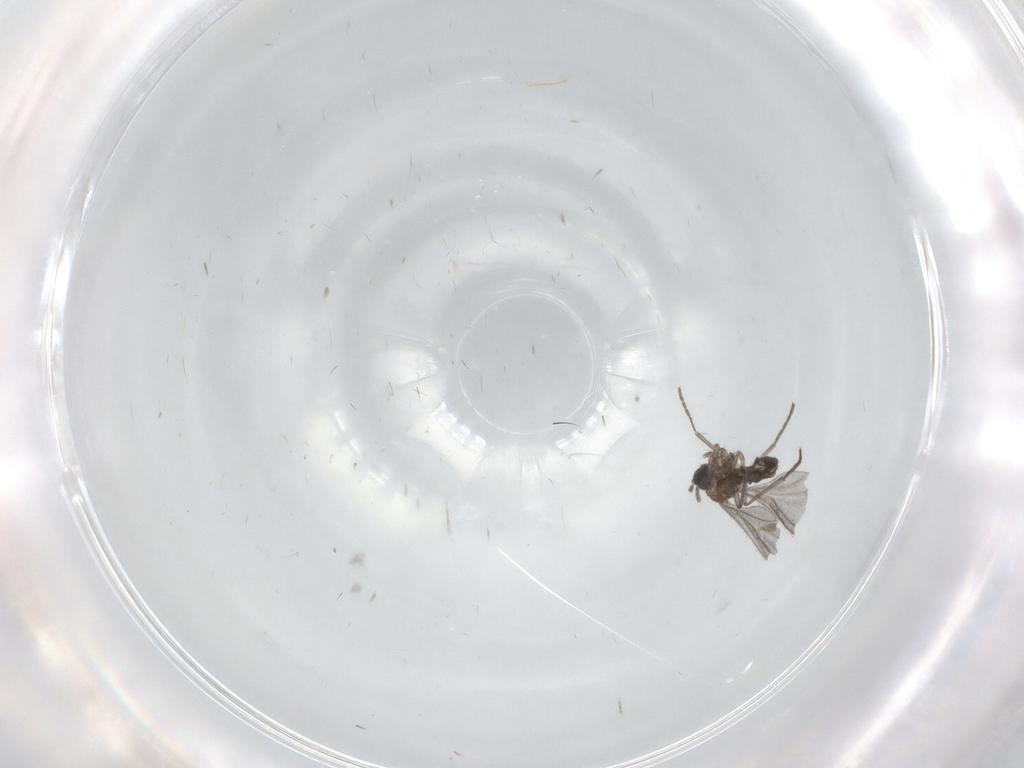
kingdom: Animalia
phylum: Arthropoda
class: Insecta
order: Diptera
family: Sciaridae
